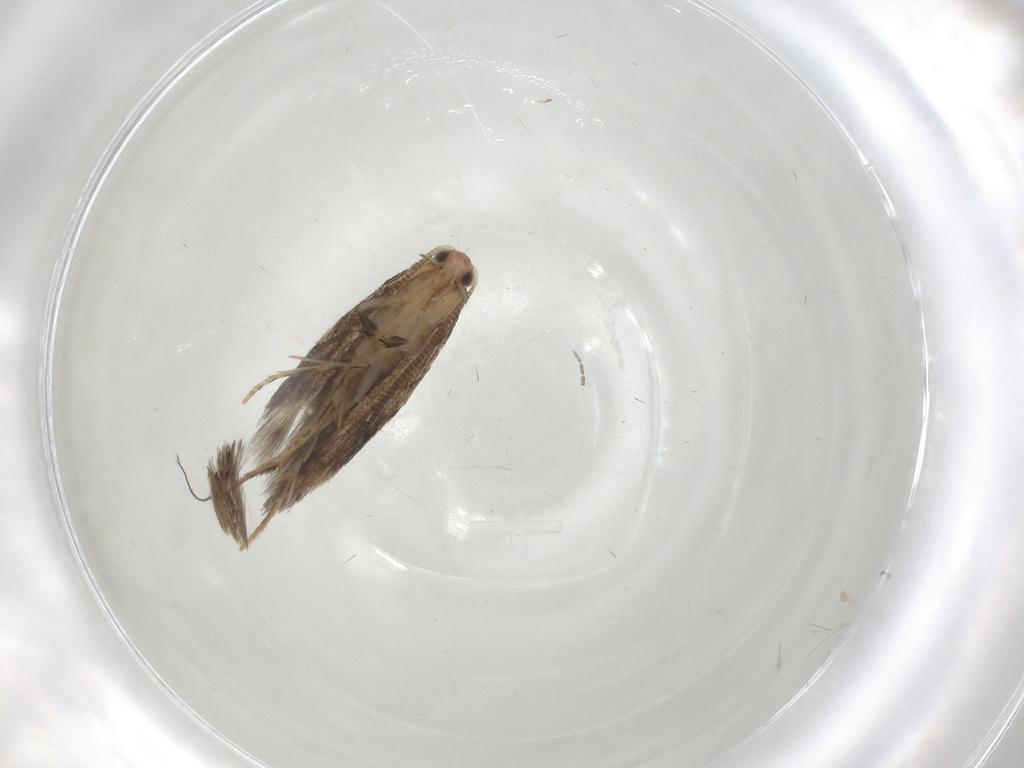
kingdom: Animalia
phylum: Arthropoda
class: Insecta
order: Lepidoptera
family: Tineidae
